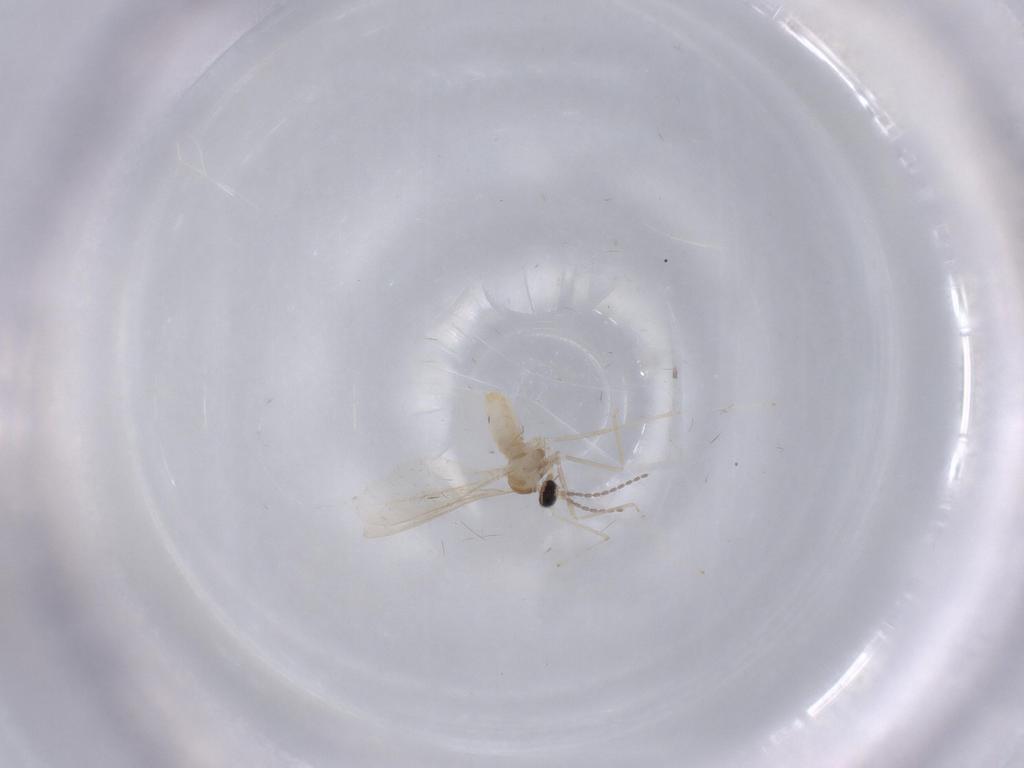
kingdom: Animalia
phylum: Arthropoda
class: Insecta
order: Diptera
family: Cecidomyiidae
